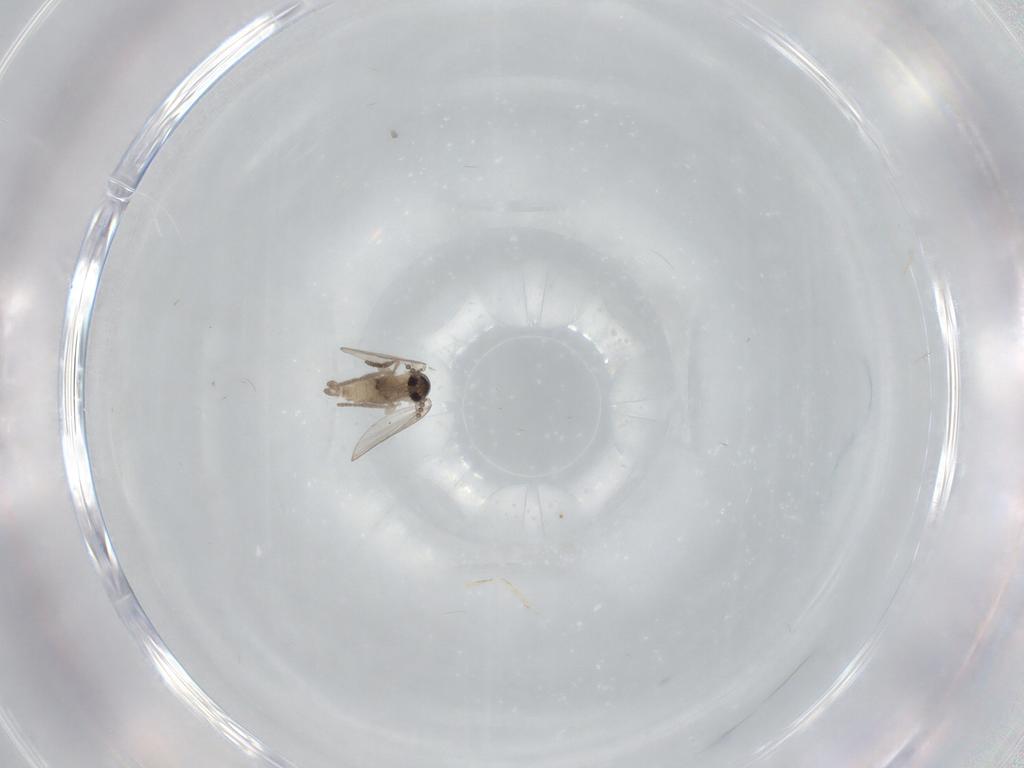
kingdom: Animalia
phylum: Arthropoda
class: Insecta
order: Diptera
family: Psychodidae
